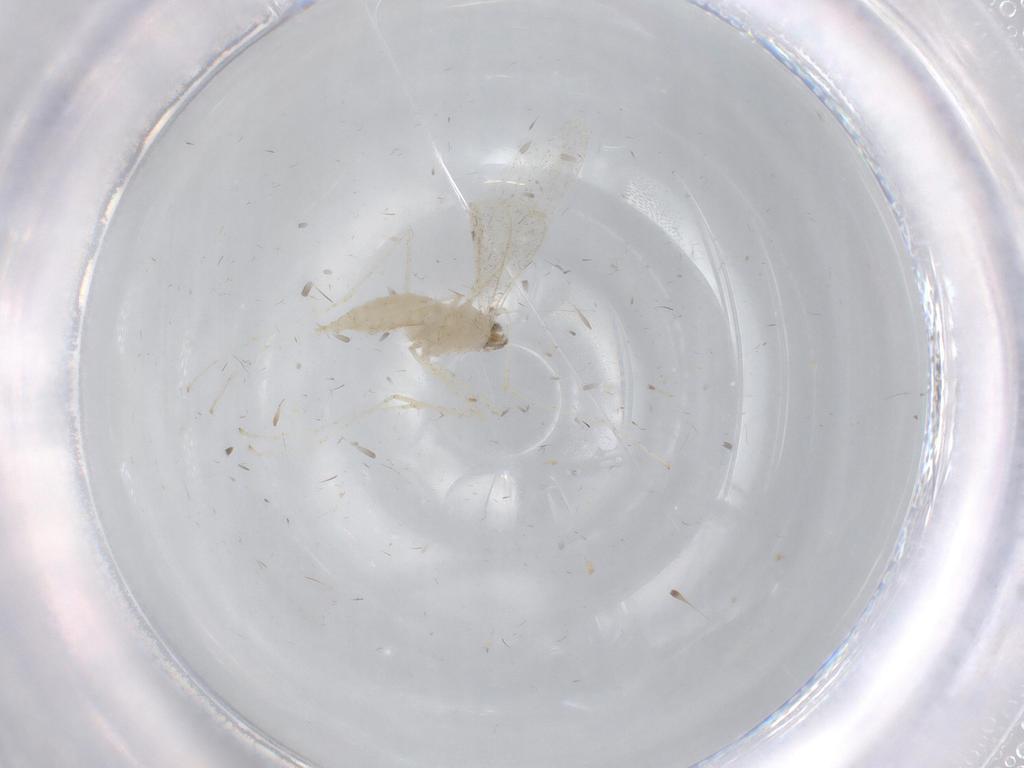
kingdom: Animalia
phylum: Arthropoda
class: Insecta
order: Diptera
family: Cecidomyiidae
